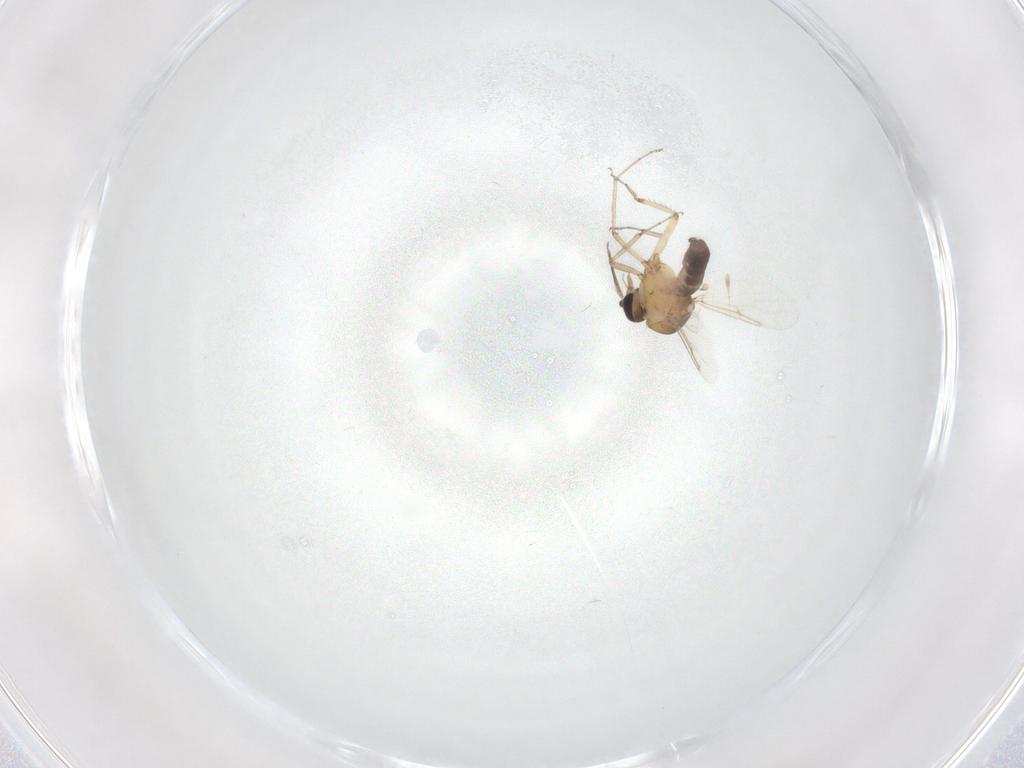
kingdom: Animalia
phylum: Arthropoda
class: Insecta
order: Diptera
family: Ceratopogonidae
